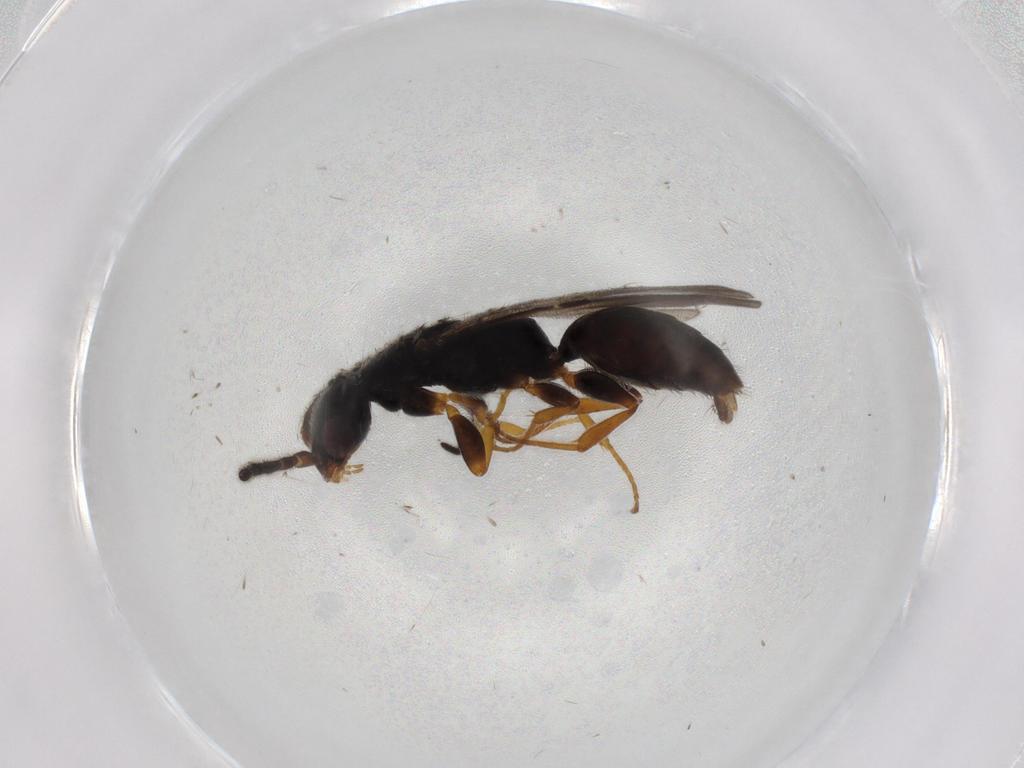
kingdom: Animalia
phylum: Arthropoda
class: Insecta
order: Hymenoptera
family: Bethylidae
